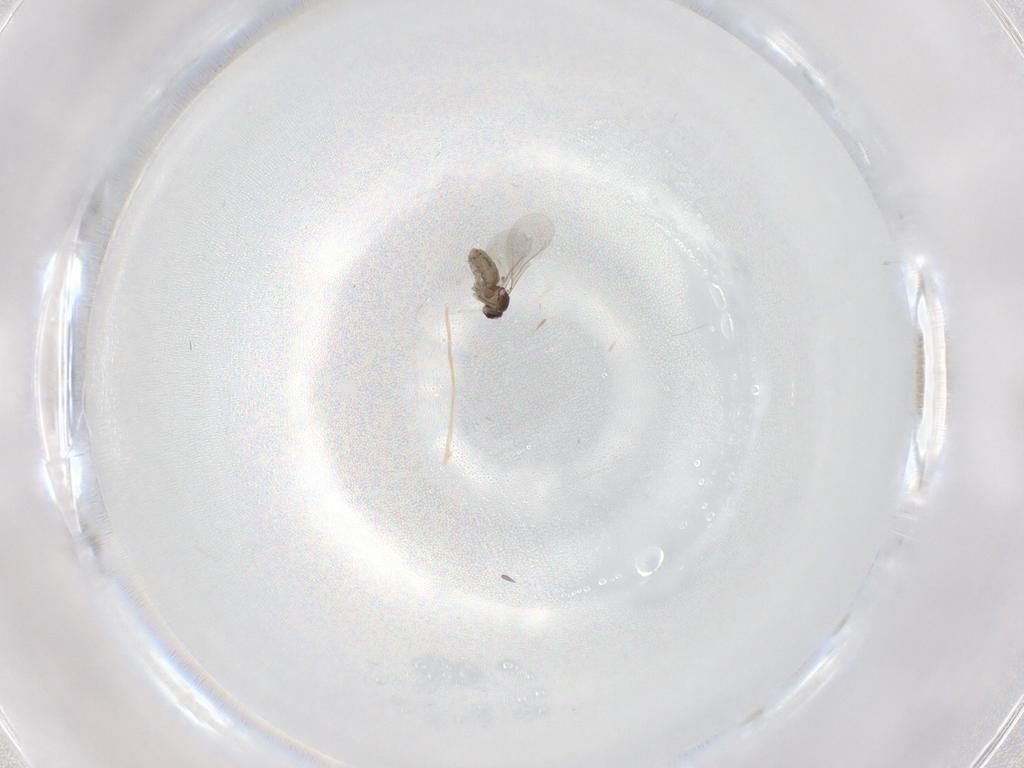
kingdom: Animalia
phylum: Arthropoda
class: Insecta
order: Diptera
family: Cecidomyiidae
